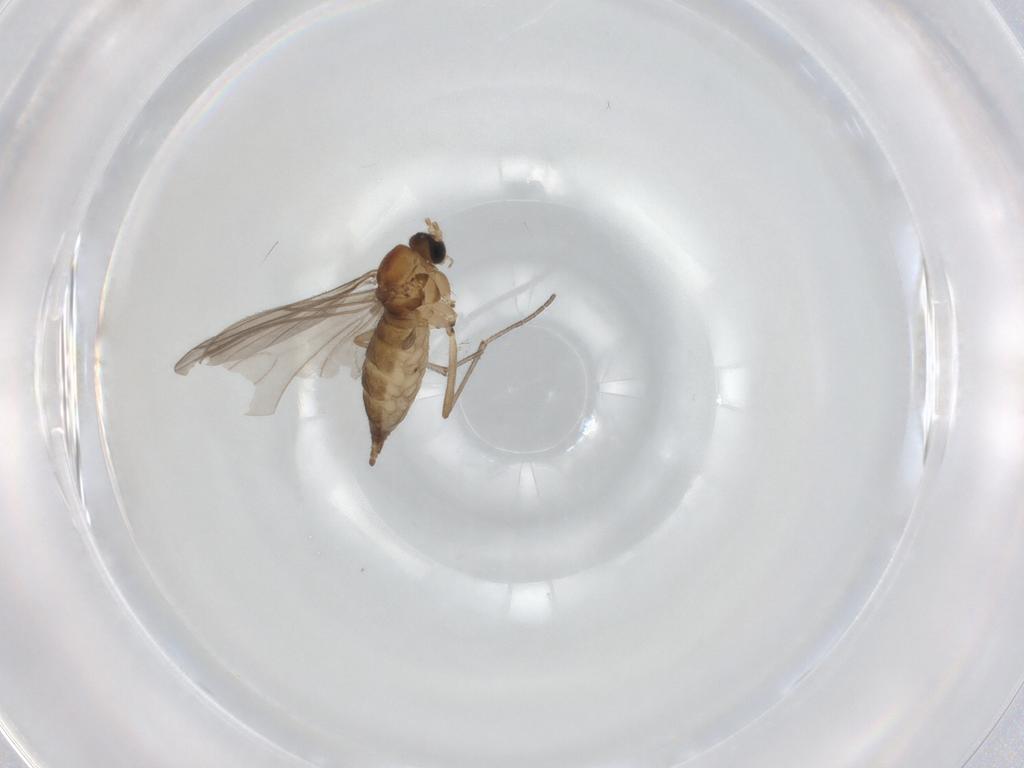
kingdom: Animalia
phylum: Arthropoda
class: Insecta
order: Diptera
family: Sciaridae
